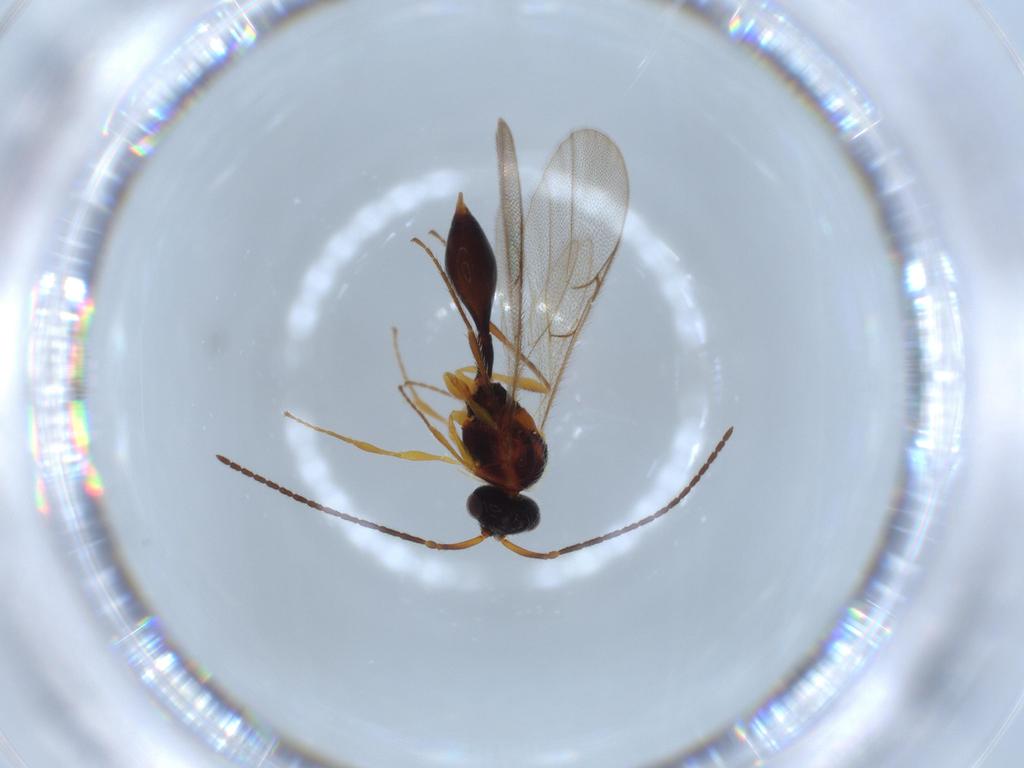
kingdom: Animalia
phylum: Arthropoda
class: Insecta
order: Hymenoptera
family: Diapriidae
